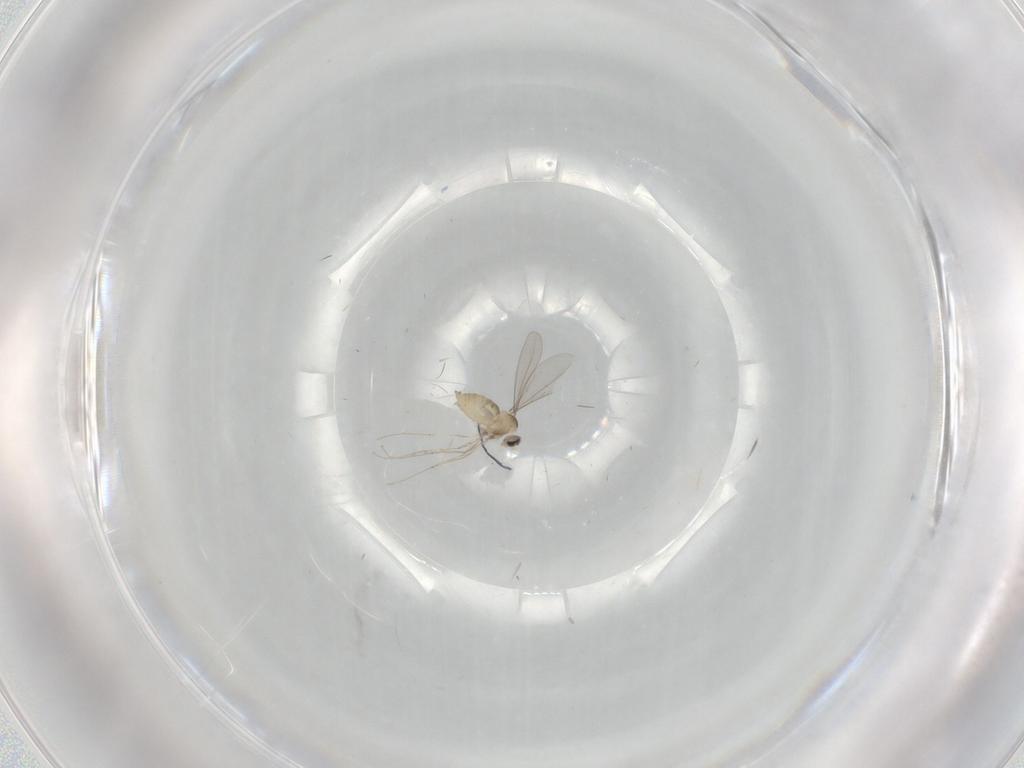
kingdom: Animalia
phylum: Arthropoda
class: Insecta
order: Diptera
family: Cecidomyiidae
